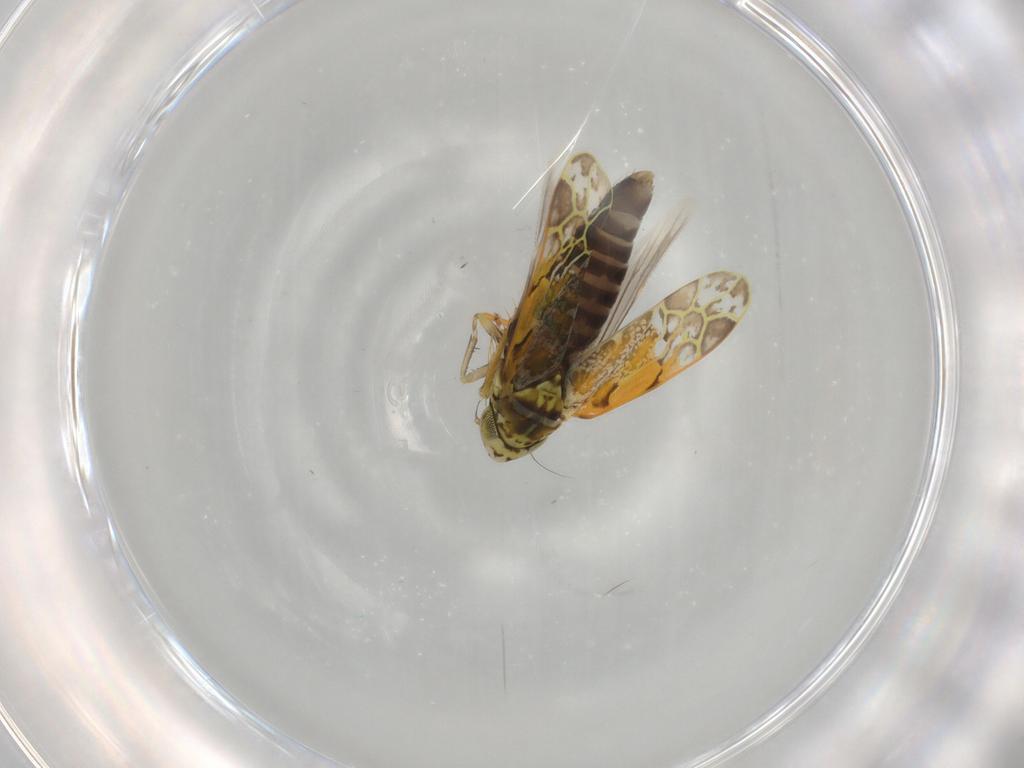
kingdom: Animalia
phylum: Arthropoda
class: Insecta
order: Hemiptera
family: Cicadellidae
